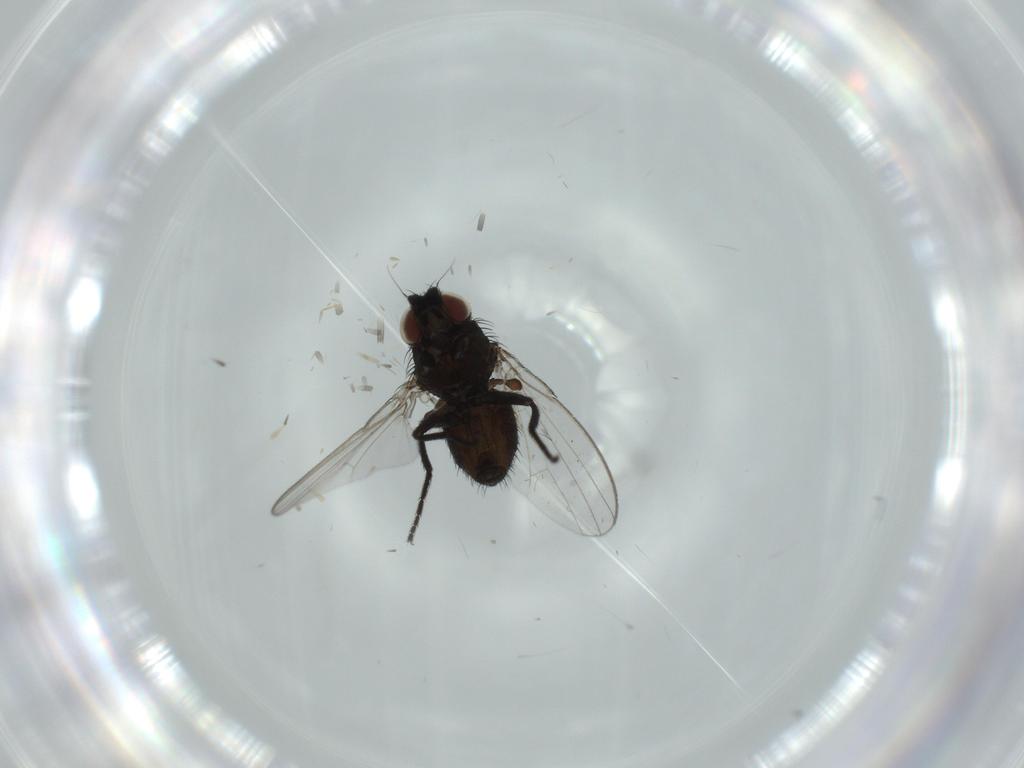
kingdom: Animalia
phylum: Arthropoda
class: Insecta
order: Diptera
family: Milichiidae
